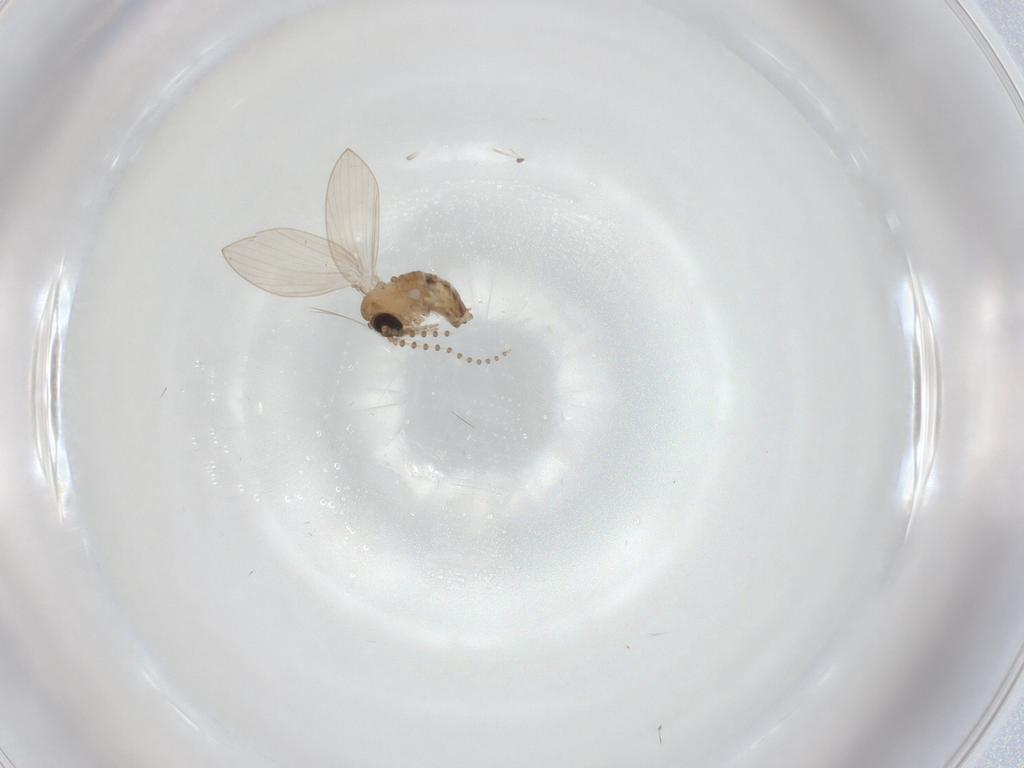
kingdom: Animalia
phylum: Arthropoda
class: Insecta
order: Diptera
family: Psychodidae
